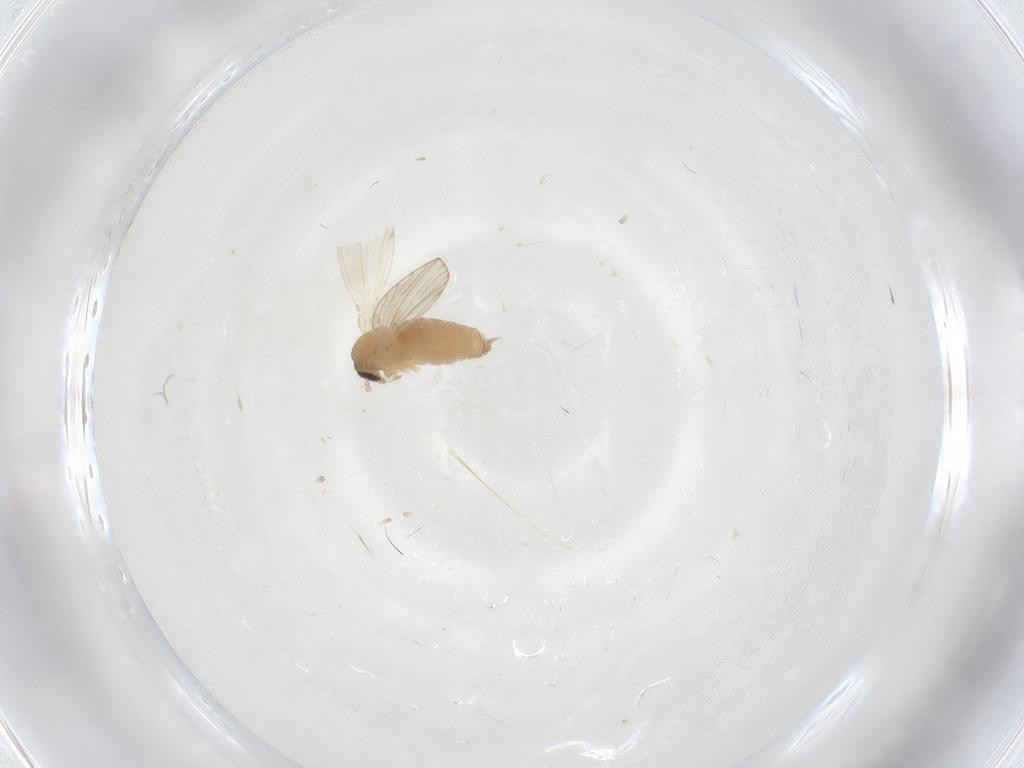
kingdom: Animalia
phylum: Arthropoda
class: Insecta
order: Diptera
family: Psychodidae
